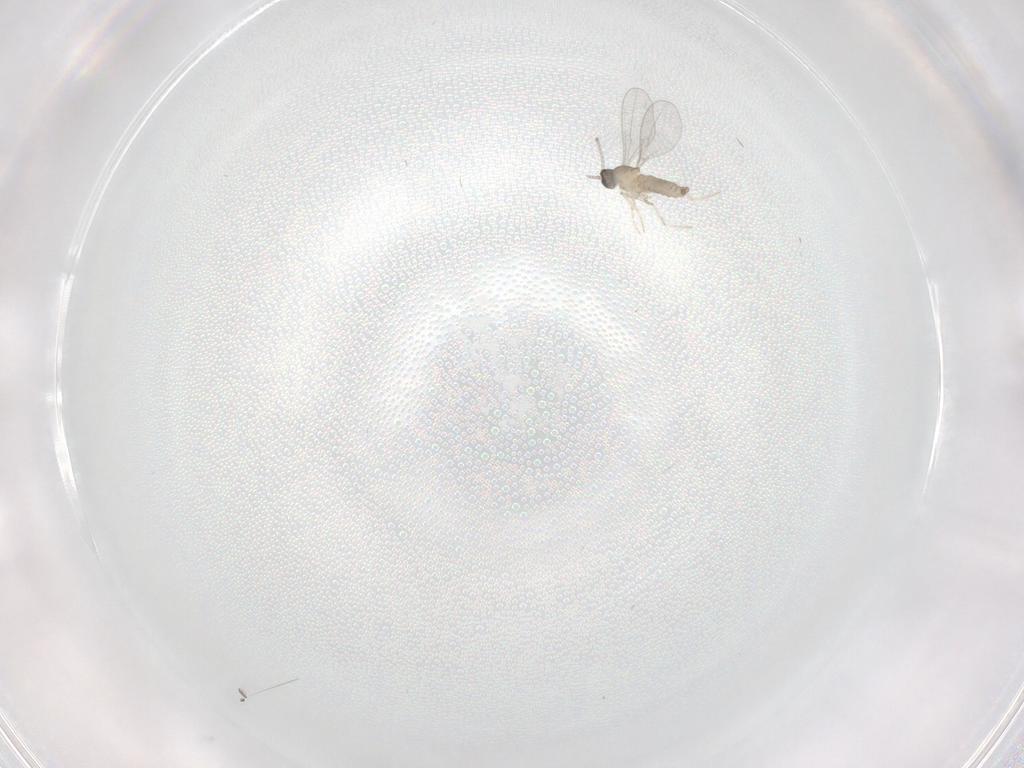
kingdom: Animalia
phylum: Arthropoda
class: Insecta
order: Diptera
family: Cecidomyiidae
